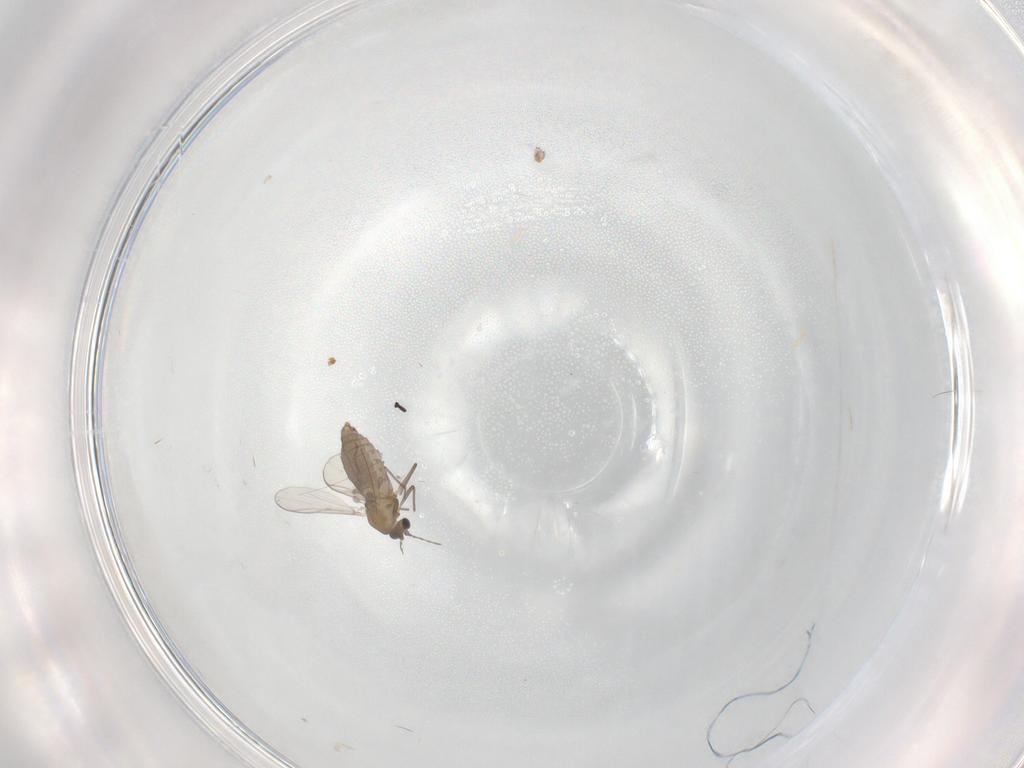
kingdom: Animalia
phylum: Arthropoda
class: Insecta
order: Diptera
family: Chironomidae
